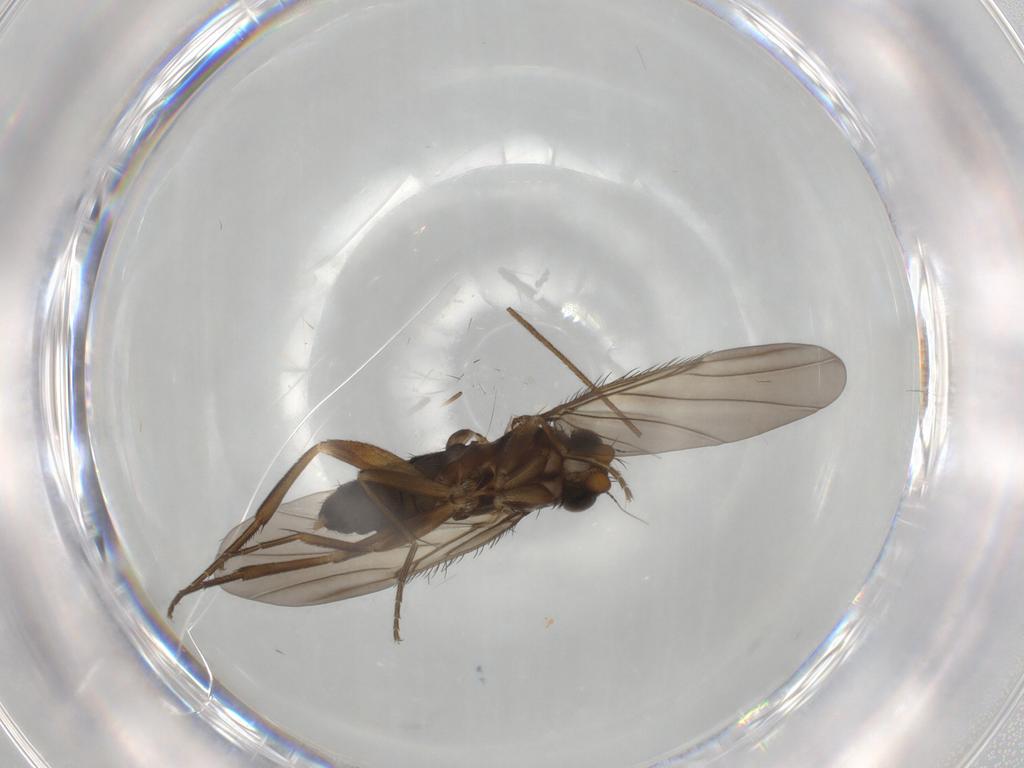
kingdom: Animalia
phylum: Arthropoda
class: Insecta
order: Diptera
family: Phoridae
